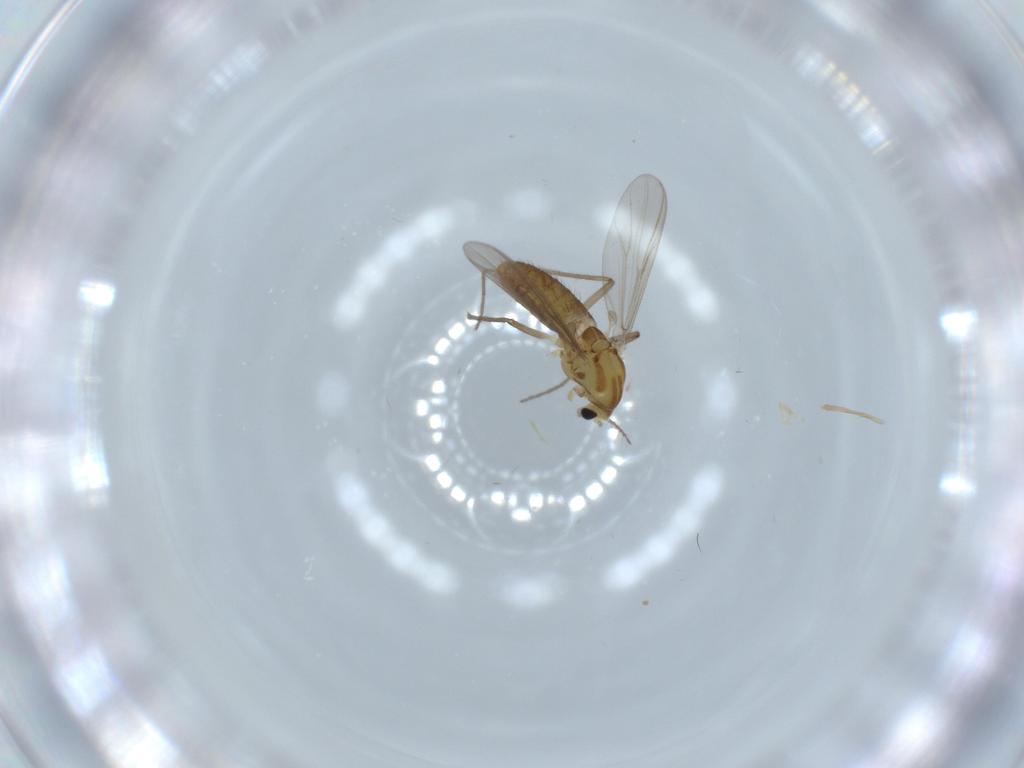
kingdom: Animalia
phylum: Arthropoda
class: Insecta
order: Diptera
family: Chironomidae
